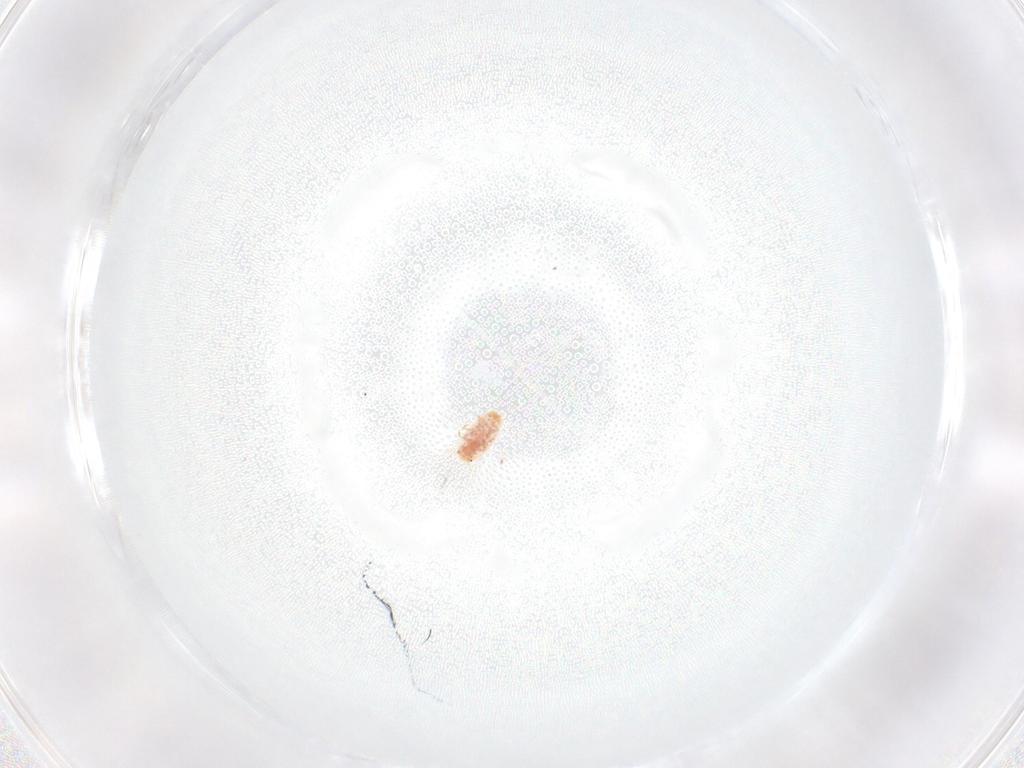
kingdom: Animalia
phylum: Arthropoda
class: Insecta
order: Hemiptera
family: Coccidae
